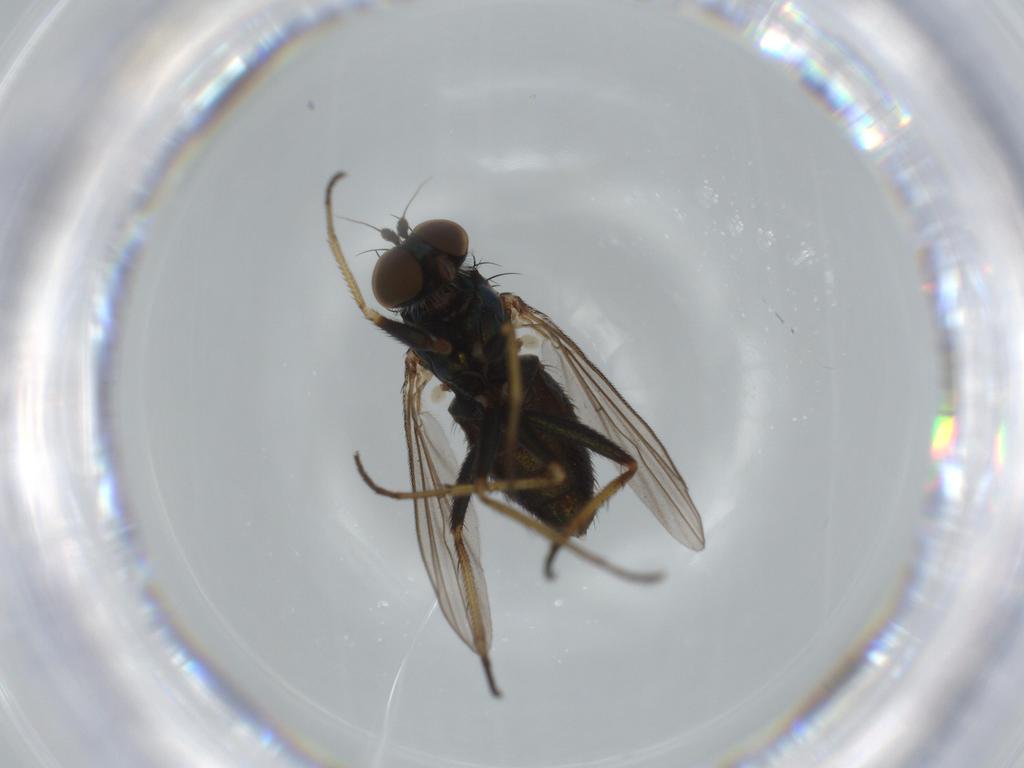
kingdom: Animalia
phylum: Arthropoda
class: Insecta
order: Diptera
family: Dolichopodidae
